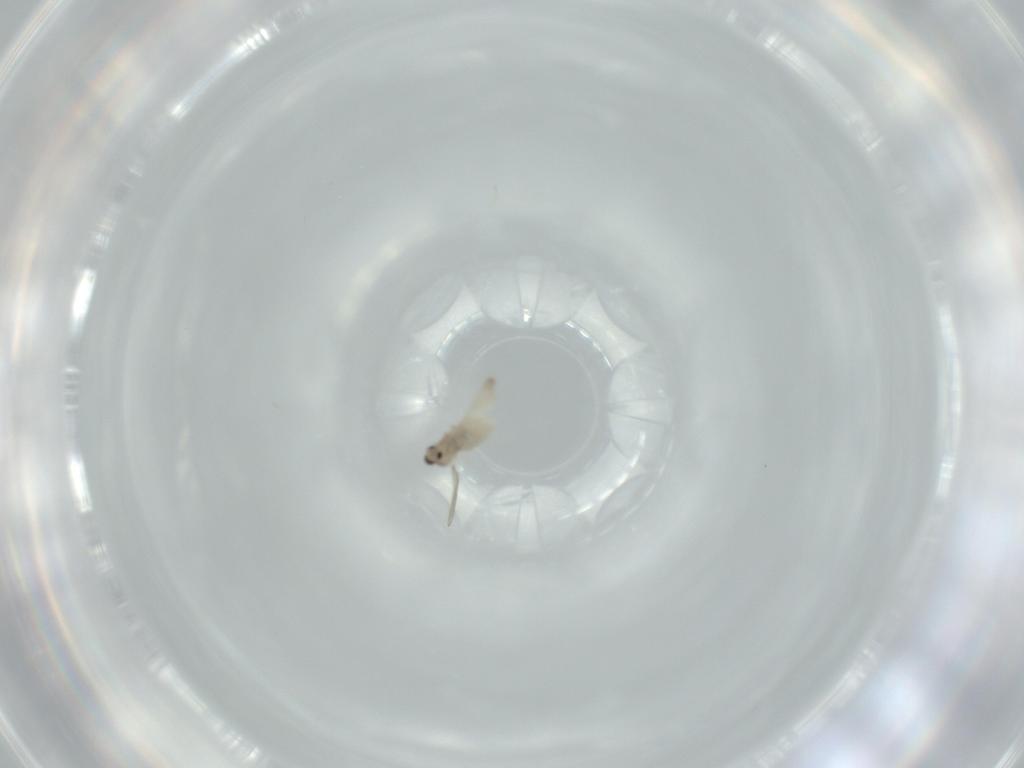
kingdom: Animalia
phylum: Arthropoda
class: Insecta
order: Diptera
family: Cecidomyiidae
